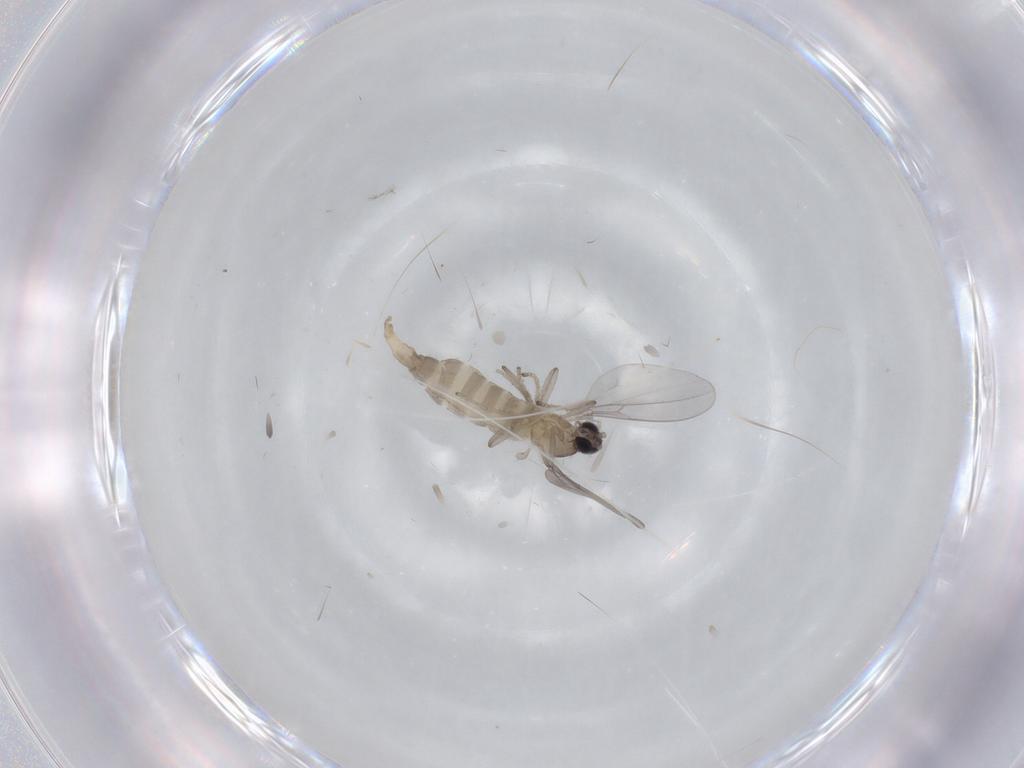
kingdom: Animalia
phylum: Arthropoda
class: Insecta
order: Diptera
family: Cecidomyiidae
